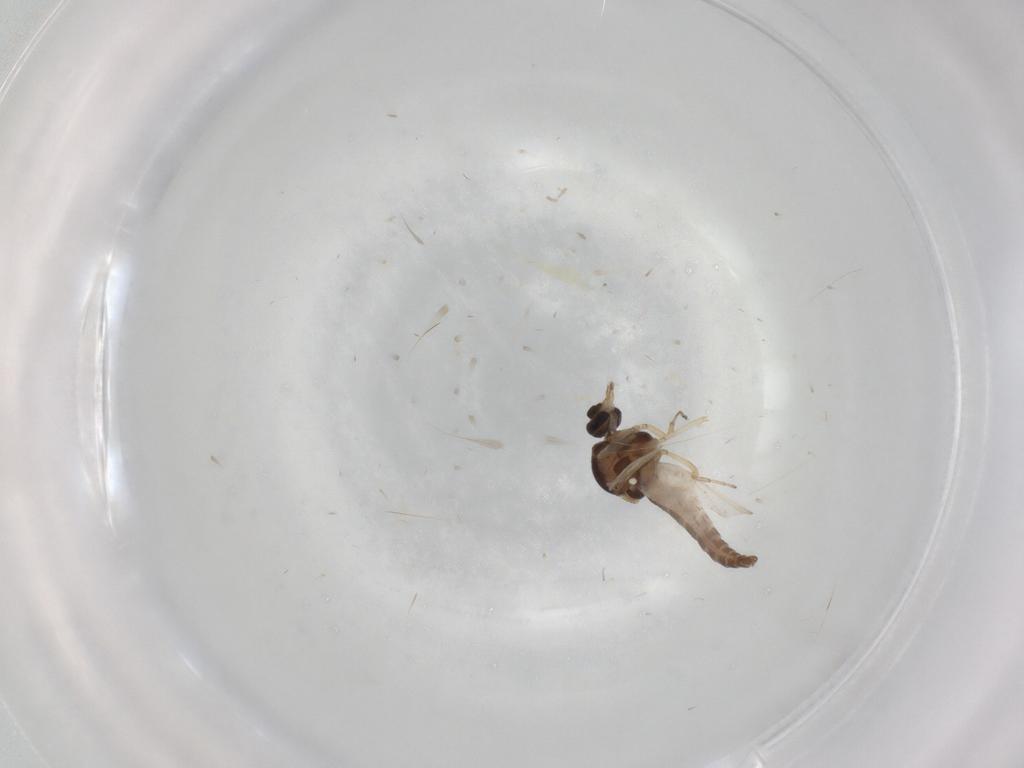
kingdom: Animalia
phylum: Arthropoda
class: Insecta
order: Diptera
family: Ceratopogonidae
